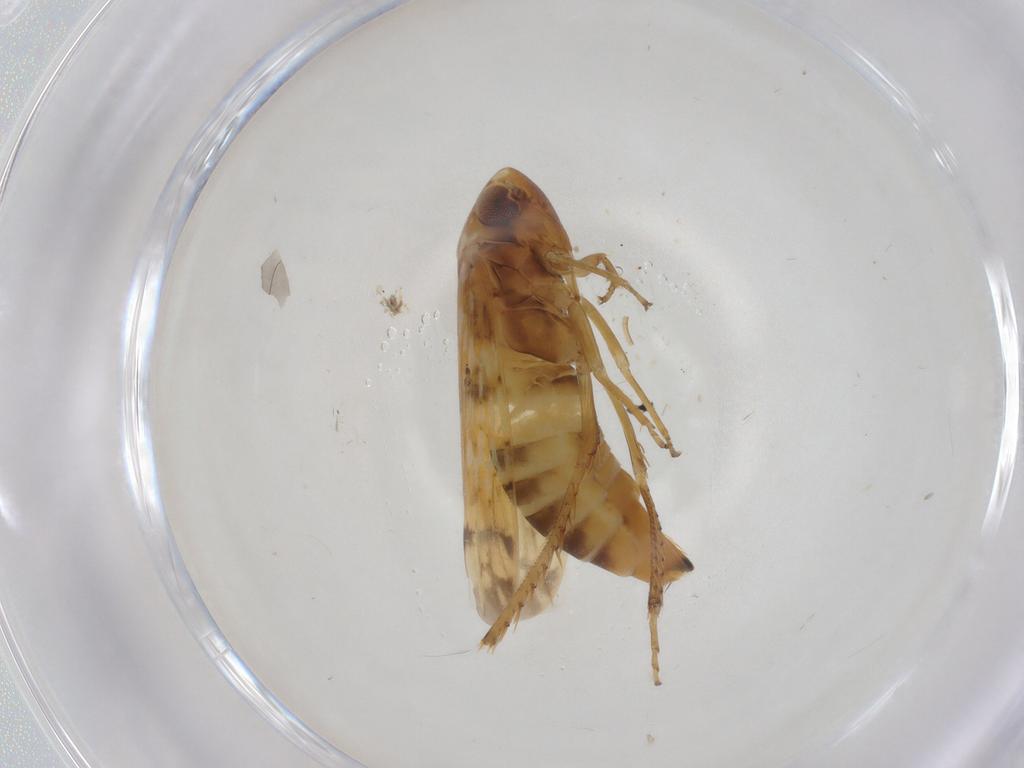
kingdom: Animalia
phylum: Arthropoda
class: Insecta
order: Hemiptera
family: Cicadellidae
